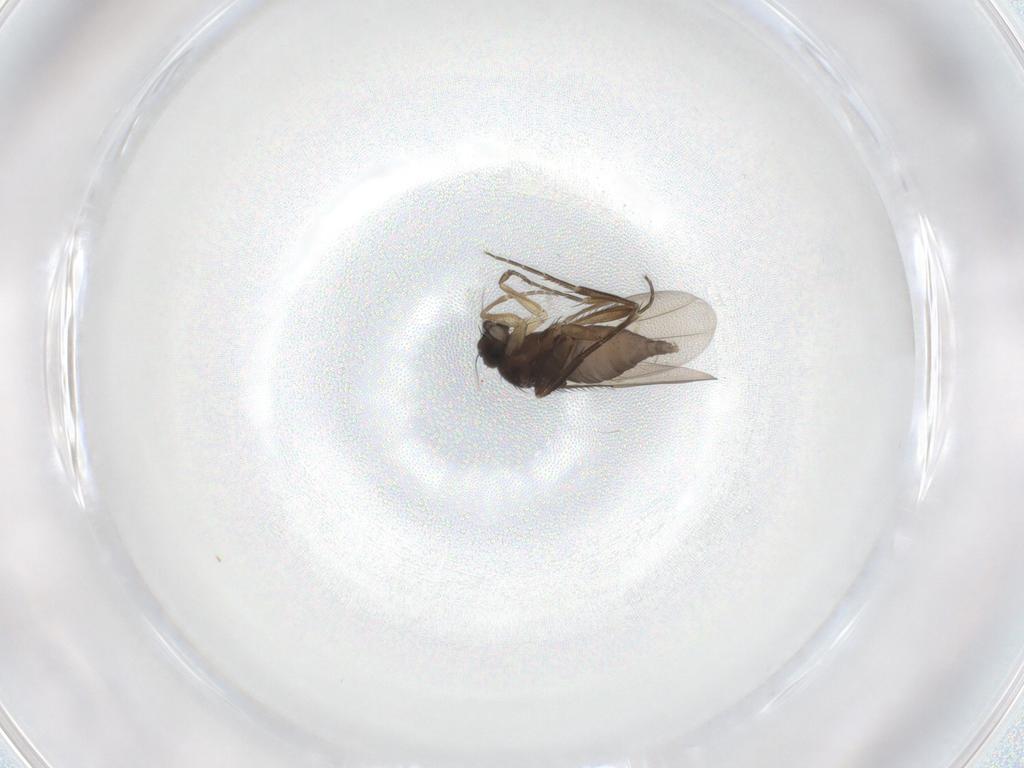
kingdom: Animalia
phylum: Arthropoda
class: Insecta
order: Diptera
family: Phoridae
